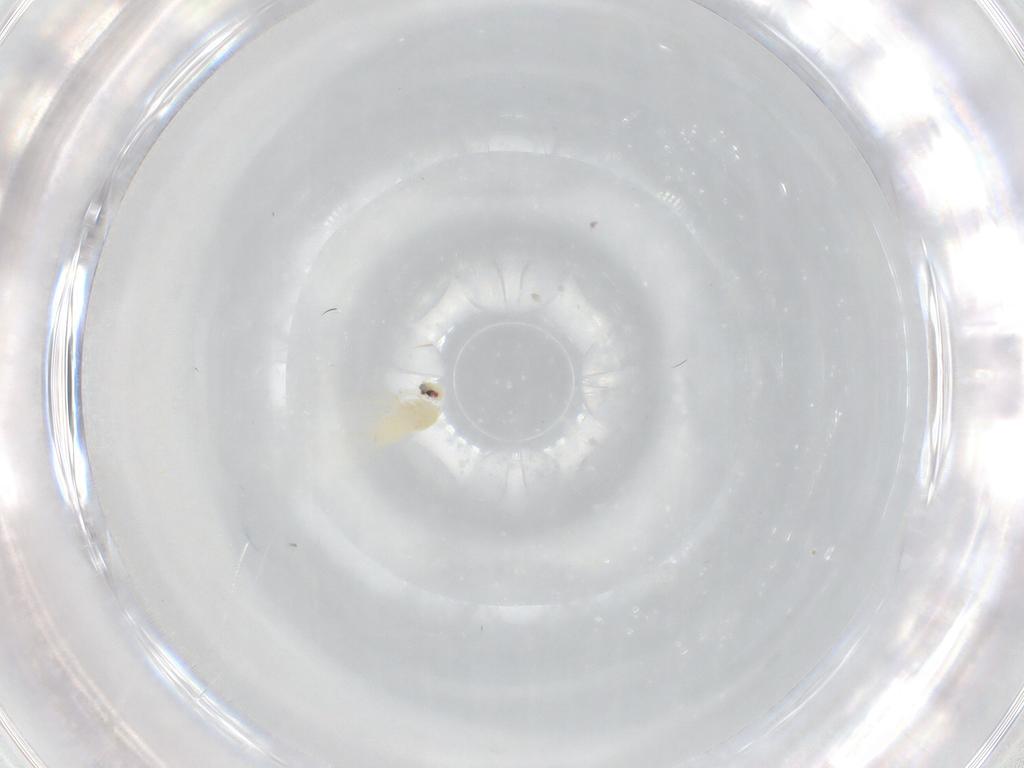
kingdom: Animalia
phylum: Arthropoda
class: Insecta
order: Hemiptera
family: Aleyrodidae
